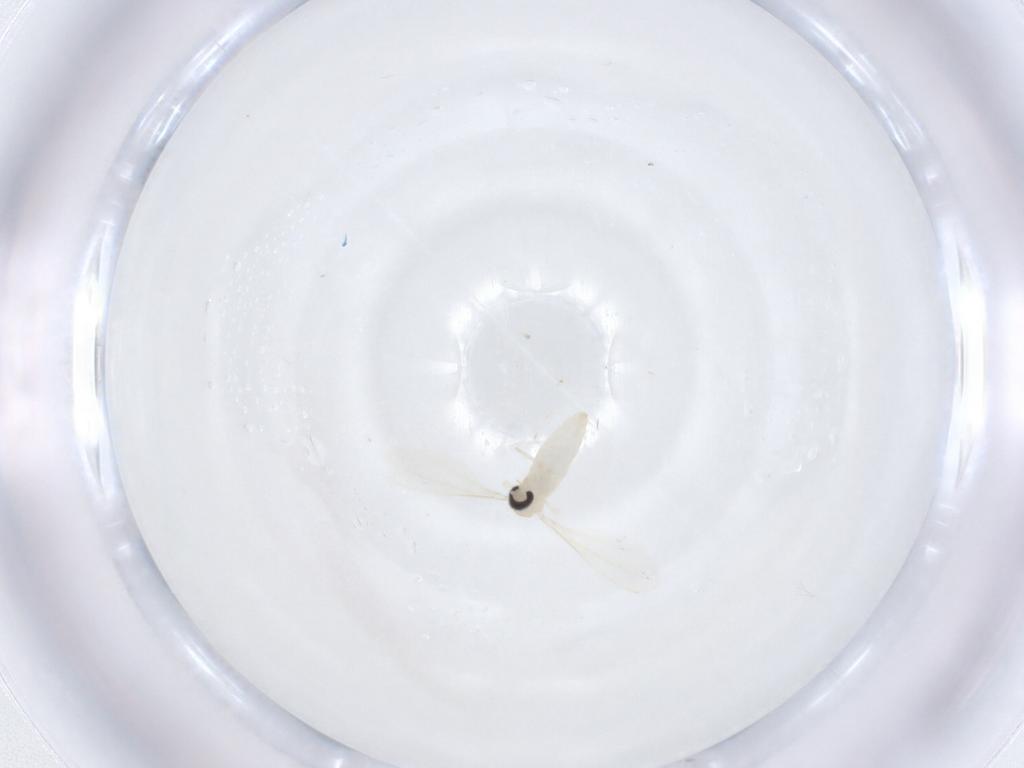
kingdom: Animalia
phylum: Arthropoda
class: Insecta
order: Diptera
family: Cecidomyiidae
